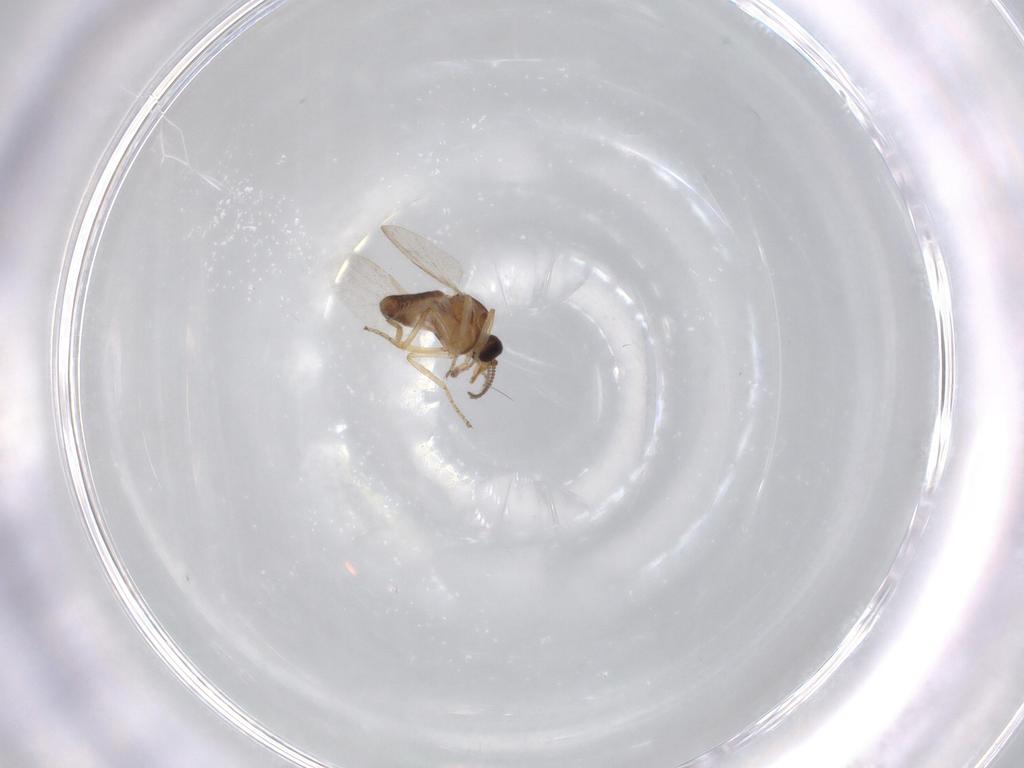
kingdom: Animalia
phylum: Arthropoda
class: Insecta
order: Diptera
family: Ceratopogonidae
